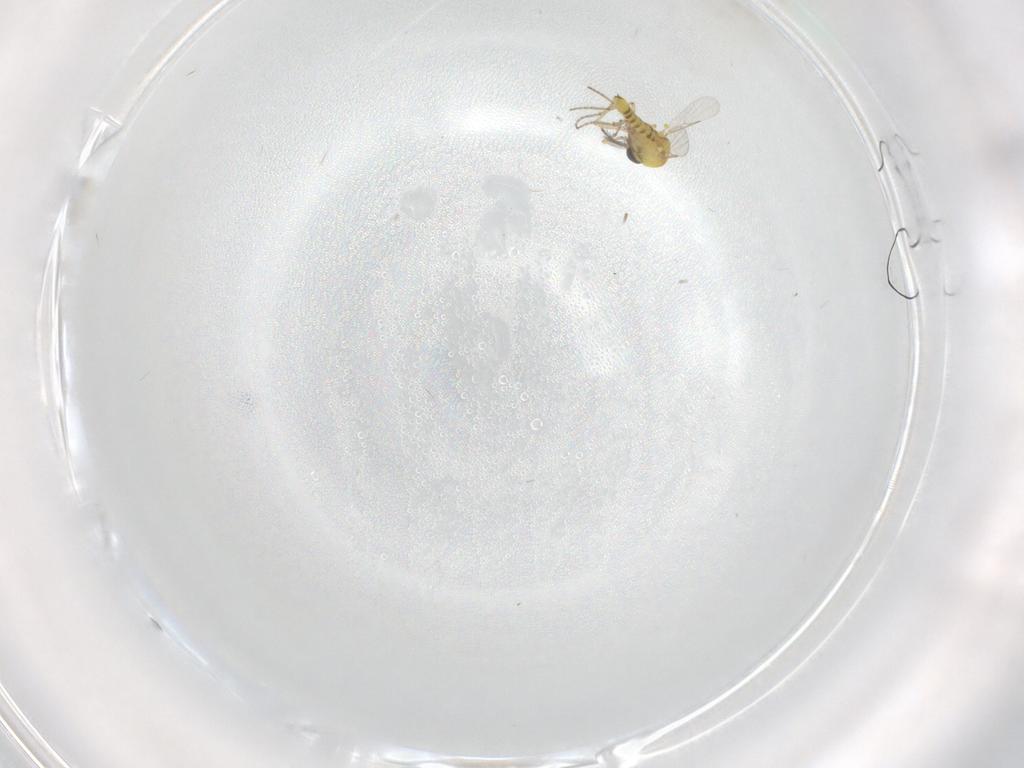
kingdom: Animalia
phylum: Arthropoda
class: Insecta
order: Diptera
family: Ceratopogonidae
